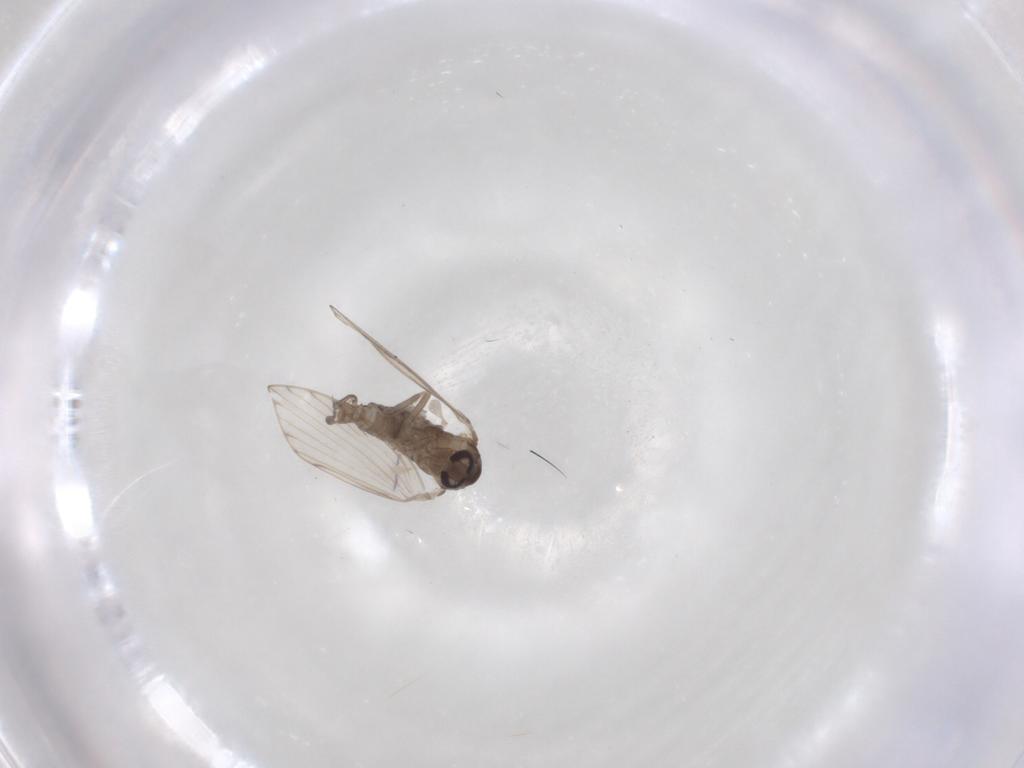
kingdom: Animalia
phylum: Arthropoda
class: Insecta
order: Diptera
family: Psychodidae
